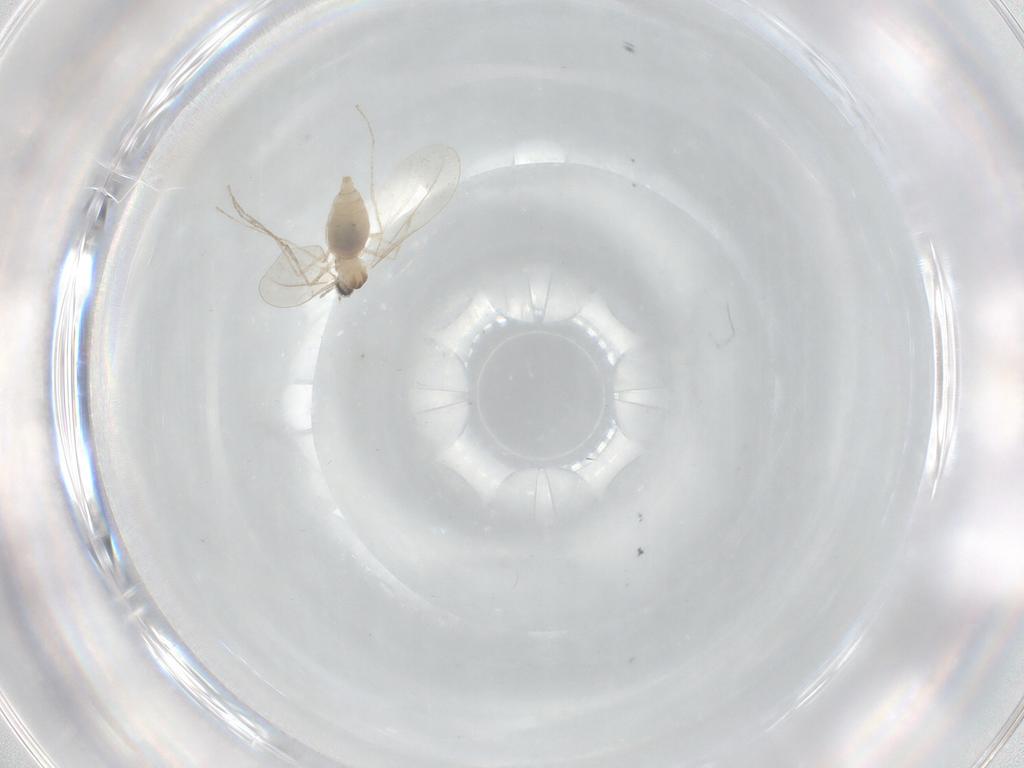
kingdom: Animalia
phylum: Arthropoda
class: Insecta
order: Diptera
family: Cecidomyiidae
